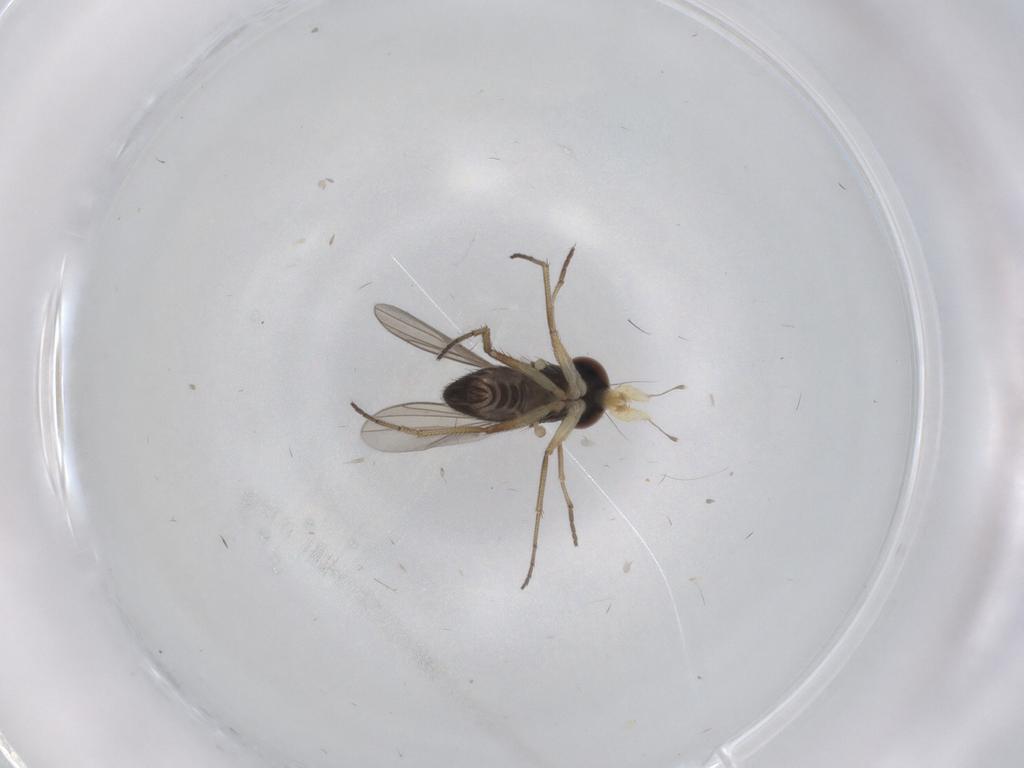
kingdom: Animalia
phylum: Arthropoda
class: Insecta
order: Diptera
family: Dolichopodidae
